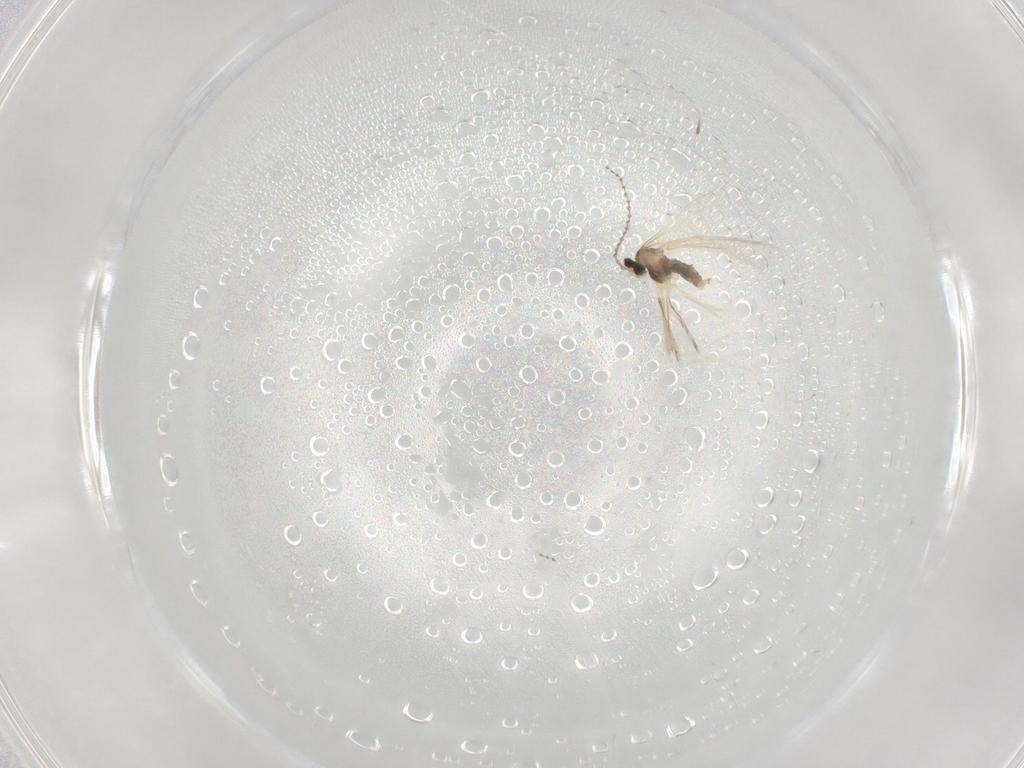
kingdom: Animalia
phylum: Arthropoda
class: Insecta
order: Diptera
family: Cecidomyiidae
